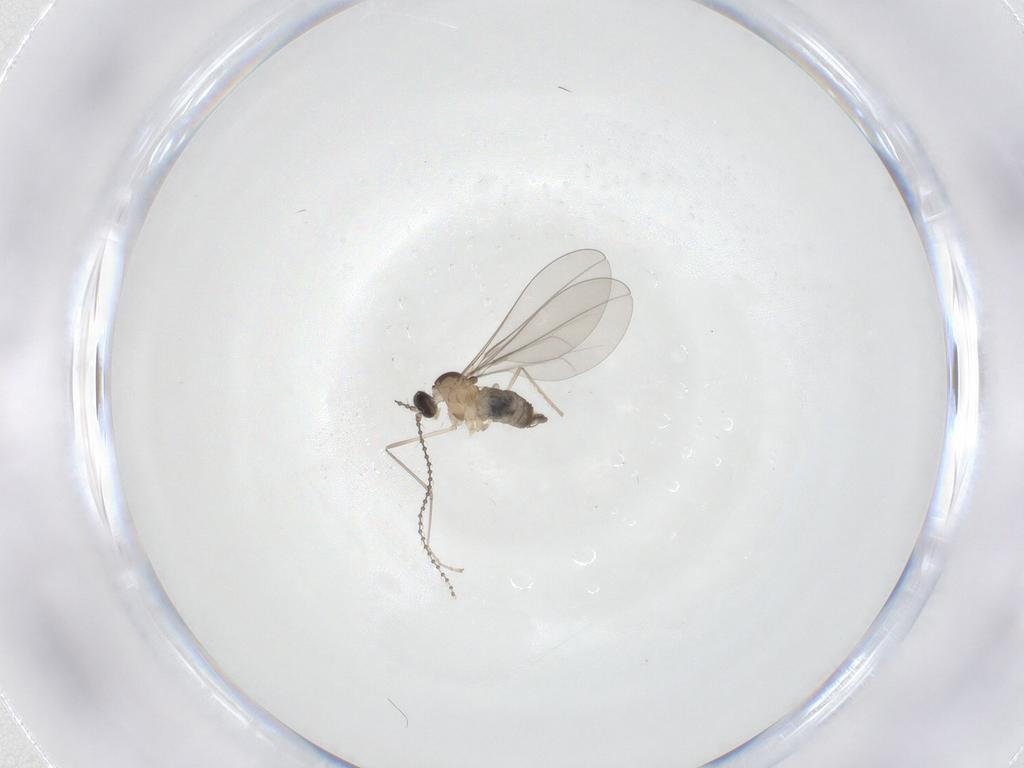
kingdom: Animalia
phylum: Arthropoda
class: Insecta
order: Diptera
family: Cecidomyiidae
